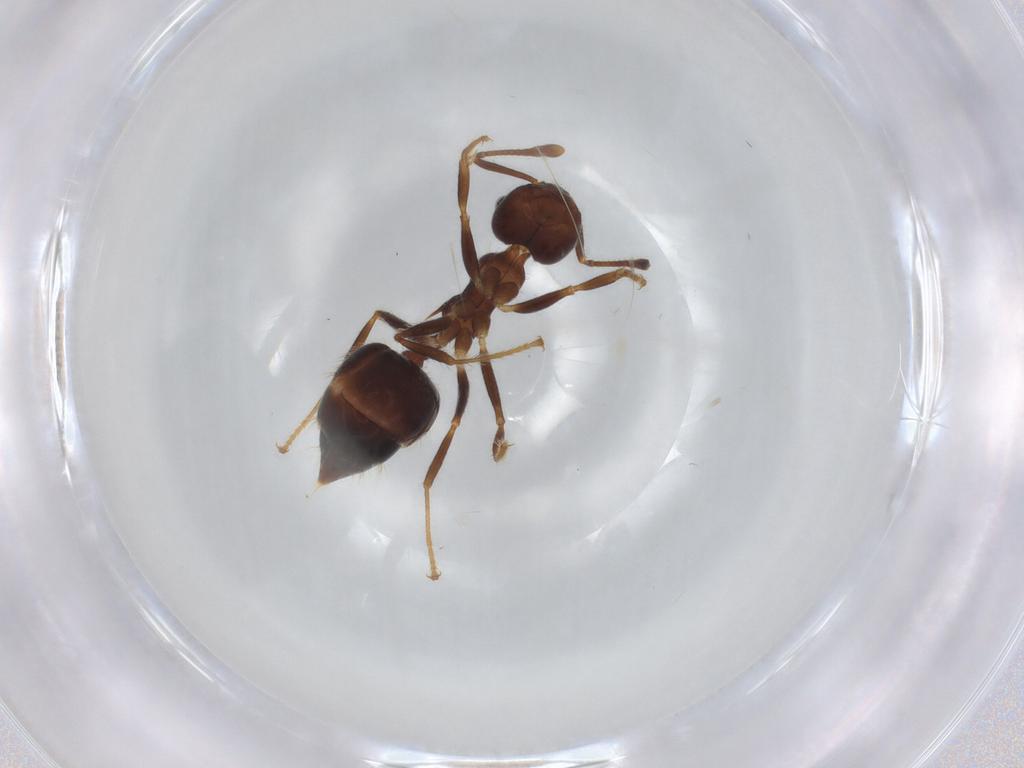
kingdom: Animalia
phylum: Arthropoda
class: Insecta
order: Hymenoptera
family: Formicidae
